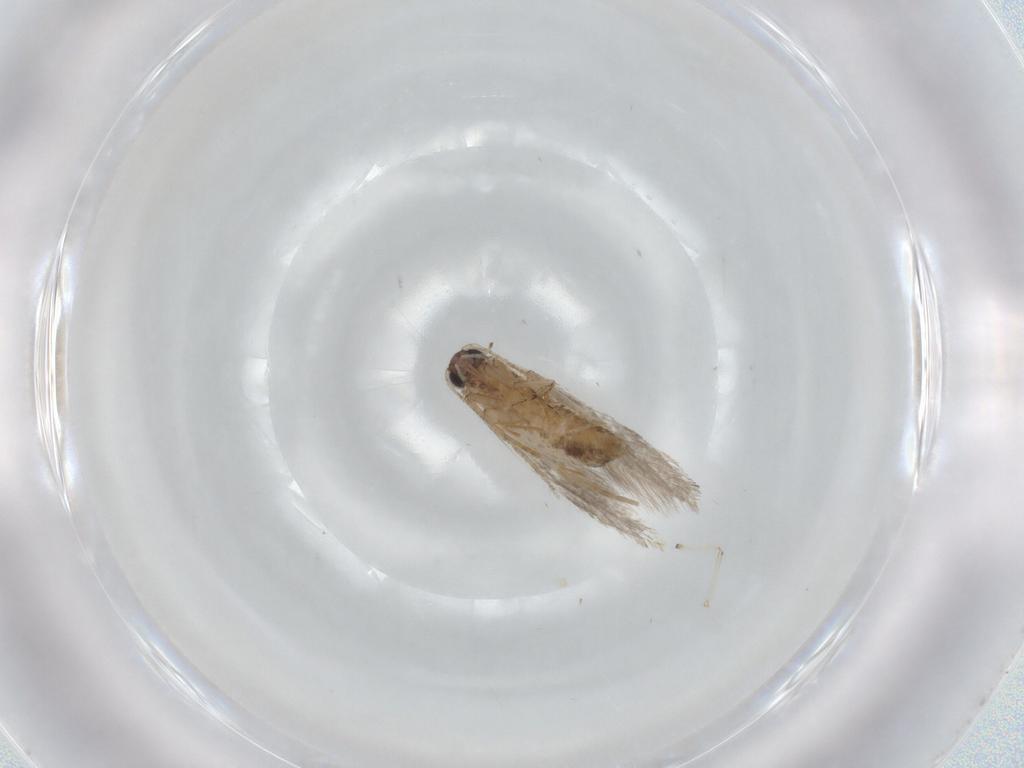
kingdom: Animalia
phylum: Arthropoda
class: Insecta
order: Lepidoptera
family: Tineidae
